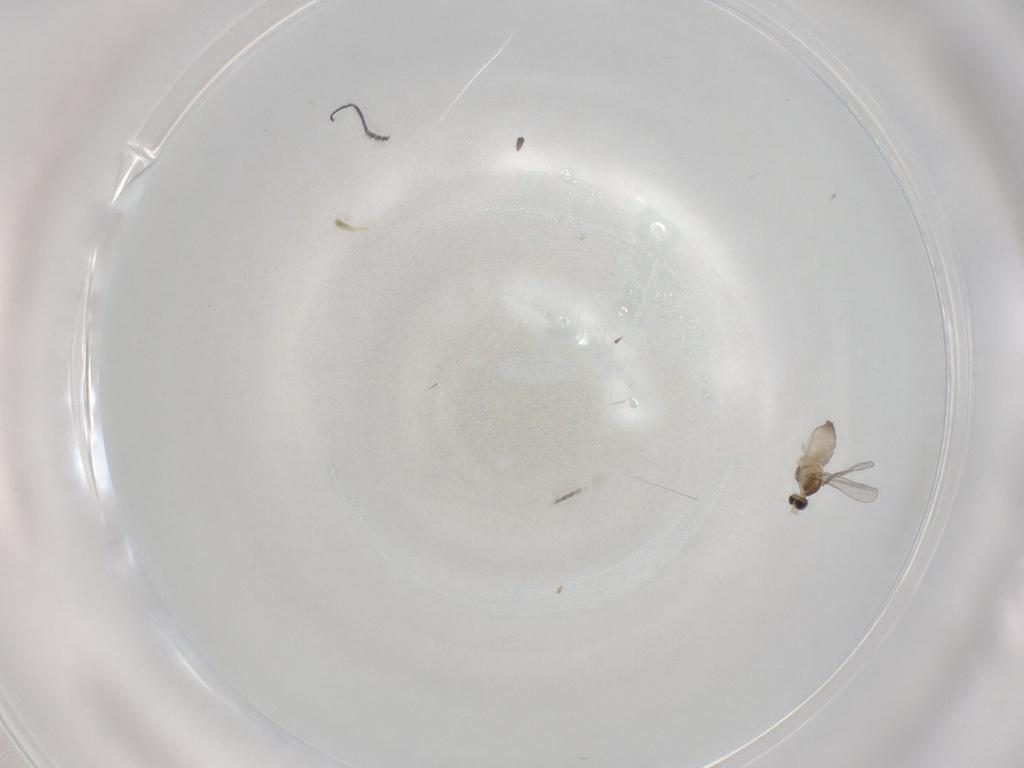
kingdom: Animalia
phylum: Arthropoda
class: Insecta
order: Diptera
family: Cecidomyiidae
